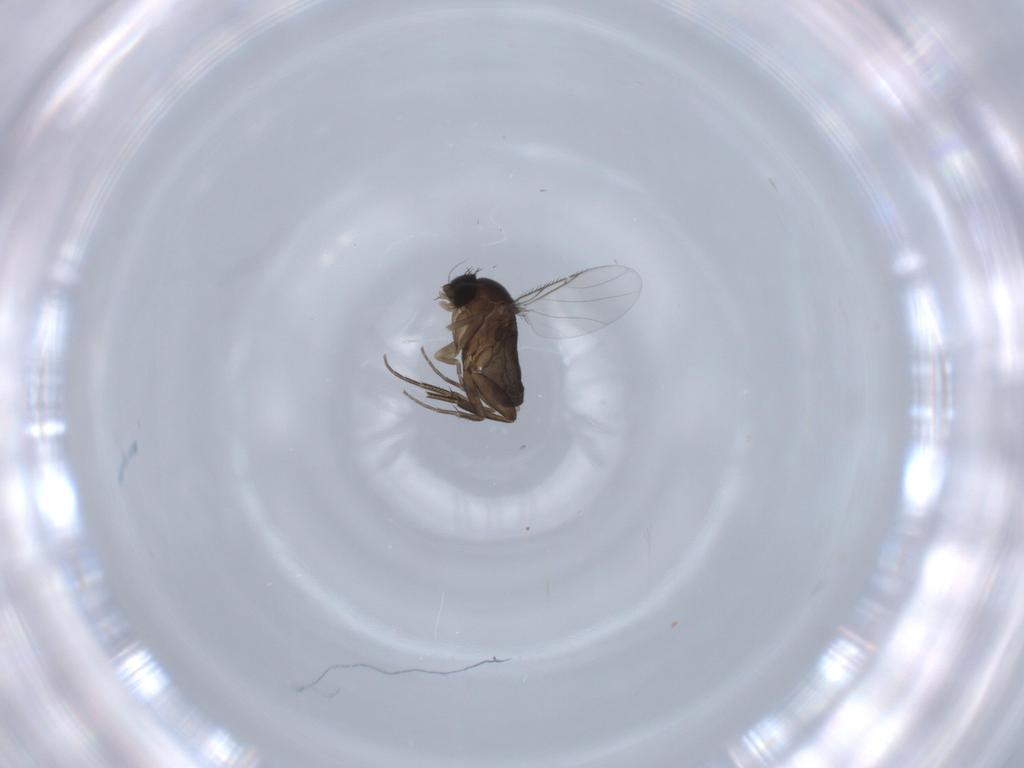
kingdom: Animalia
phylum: Arthropoda
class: Insecta
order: Diptera
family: Phoridae
